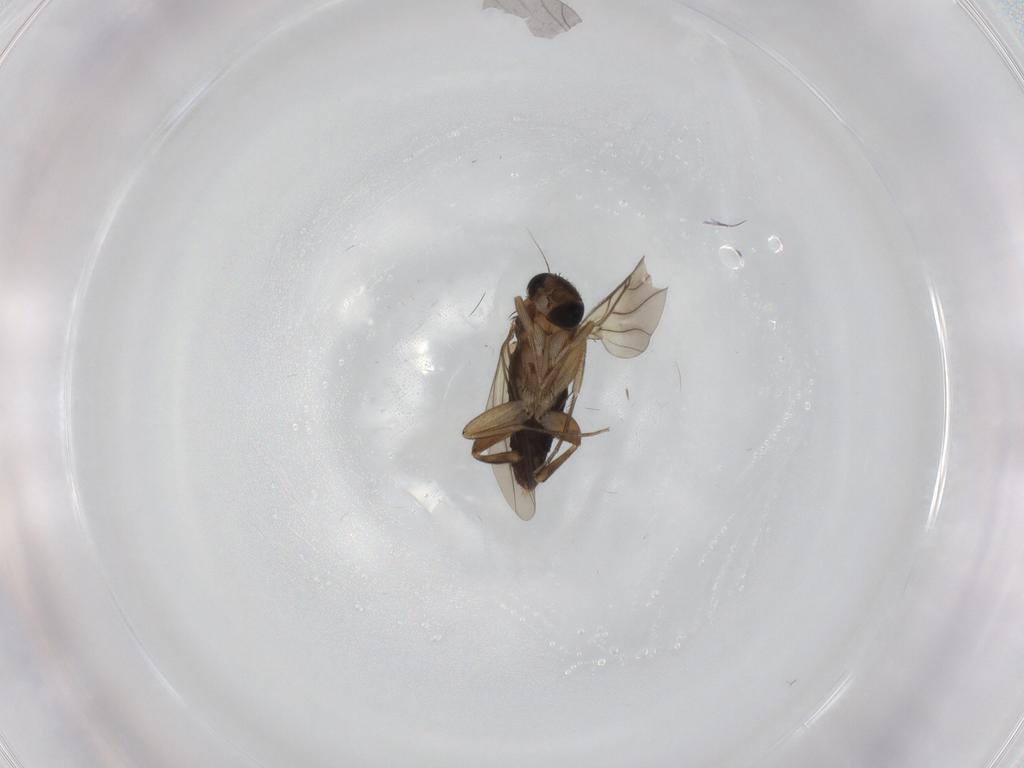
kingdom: Animalia
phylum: Arthropoda
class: Insecta
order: Diptera
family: Phoridae
